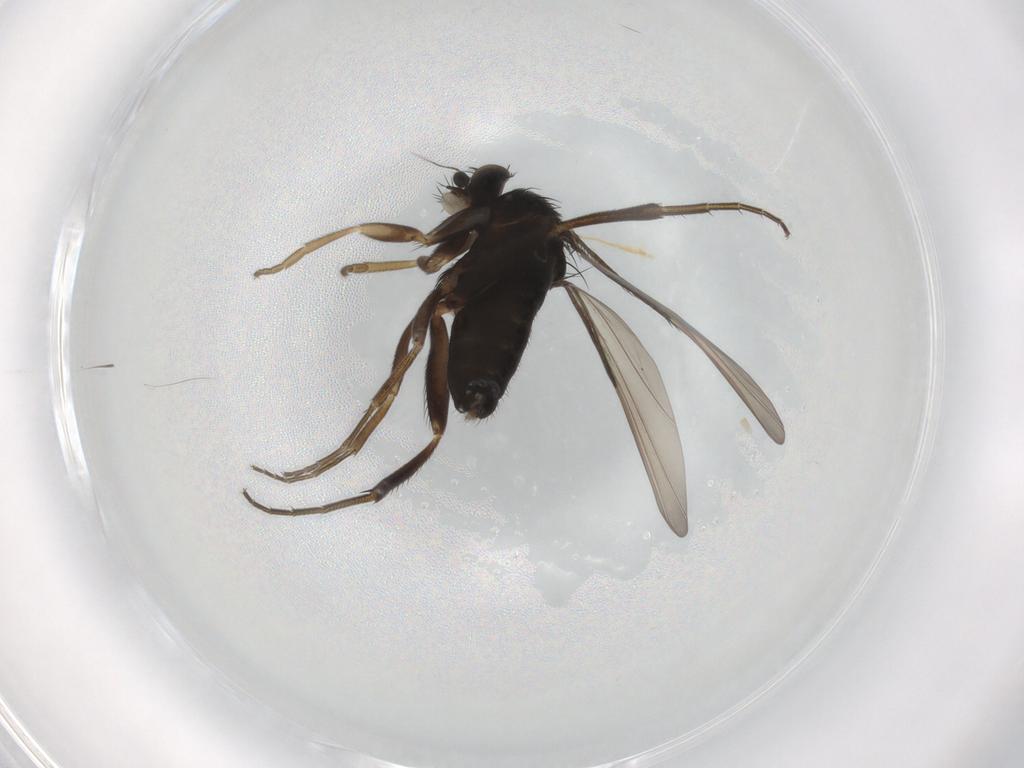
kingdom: Animalia
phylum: Arthropoda
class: Insecta
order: Diptera
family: Phoridae
